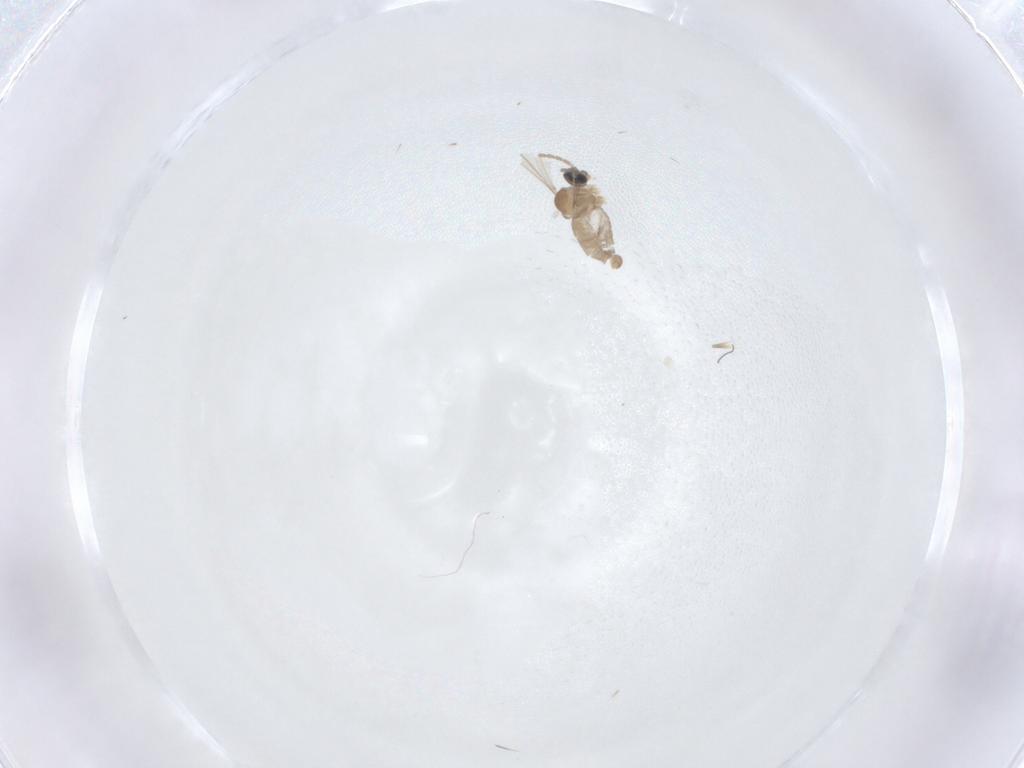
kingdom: Animalia
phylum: Arthropoda
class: Insecta
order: Diptera
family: Cecidomyiidae
